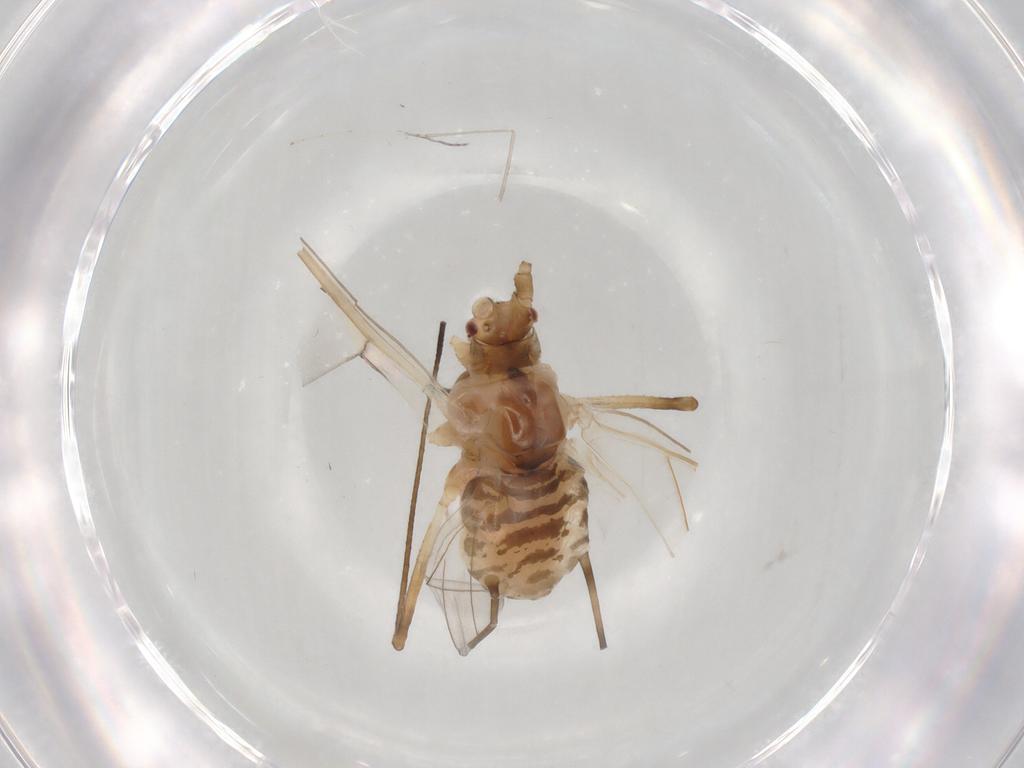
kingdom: Animalia
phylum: Arthropoda
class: Insecta
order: Hemiptera
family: Aphididae
